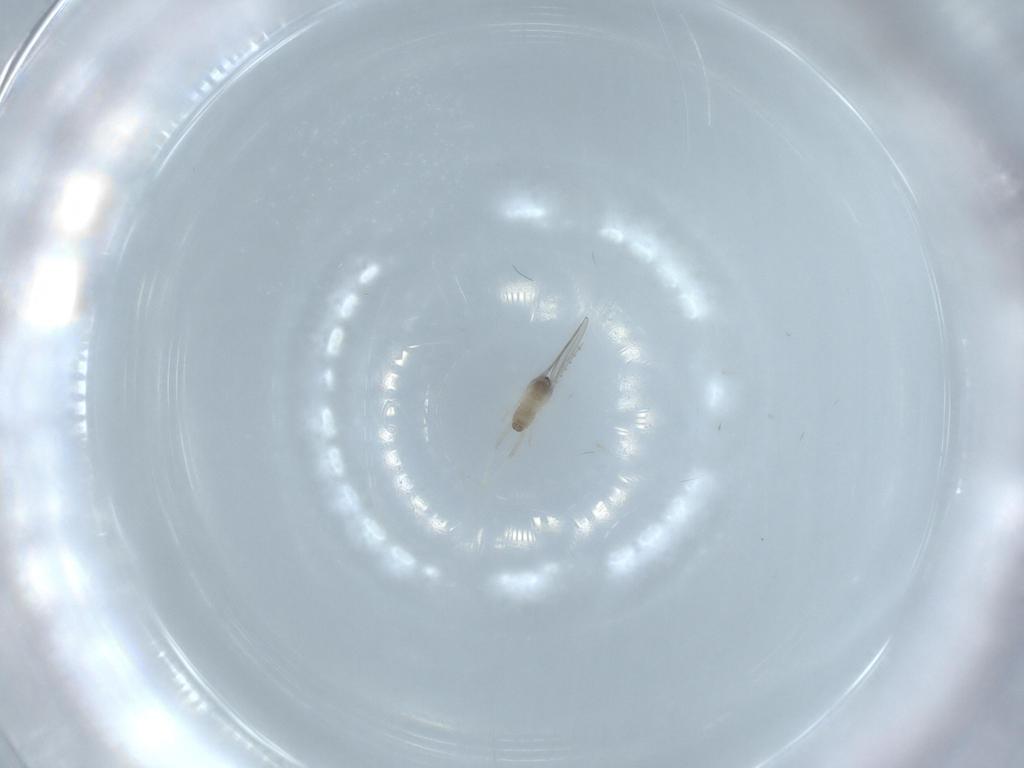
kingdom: Animalia
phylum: Arthropoda
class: Insecta
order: Diptera
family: Cecidomyiidae
